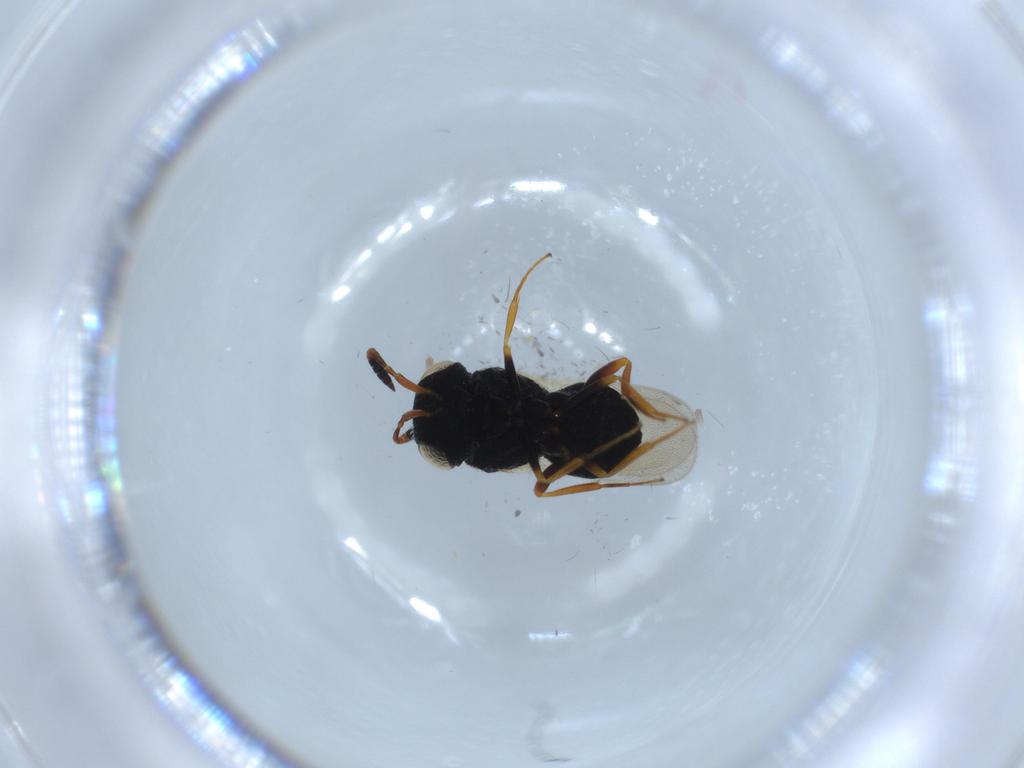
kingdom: Animalia
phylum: Arthropoda
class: Insecta
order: Hymenoptera
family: Scelionidae
